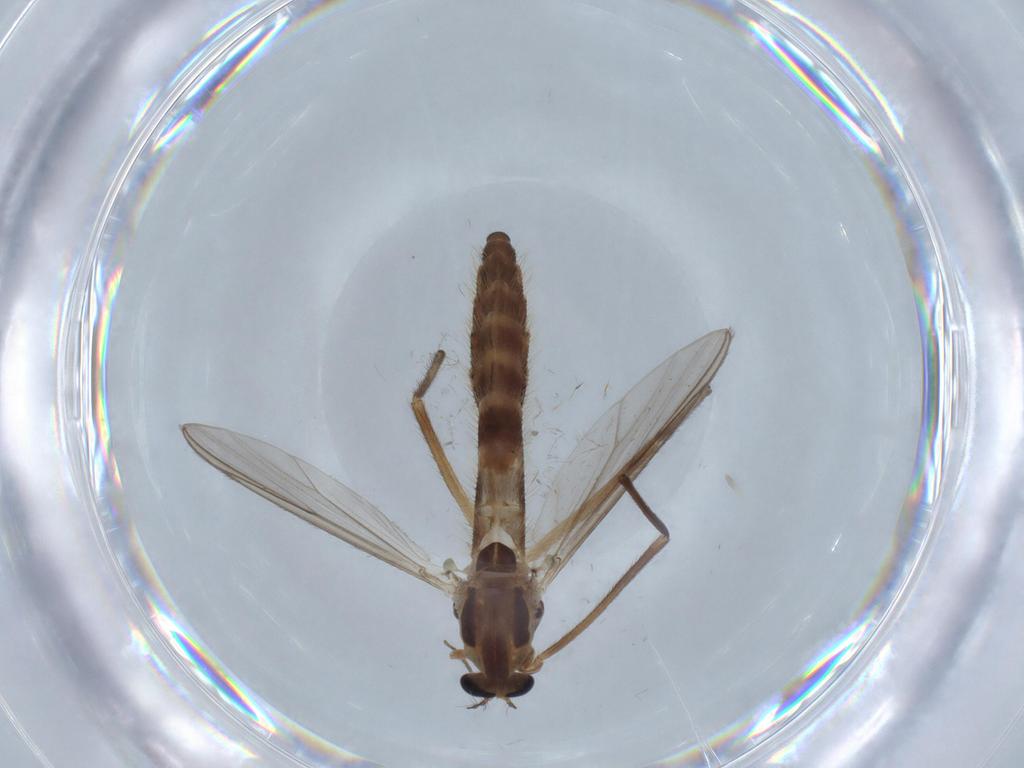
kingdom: Animalia
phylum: Arthropoda
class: Insecta
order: Diptera
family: Chironomidae
